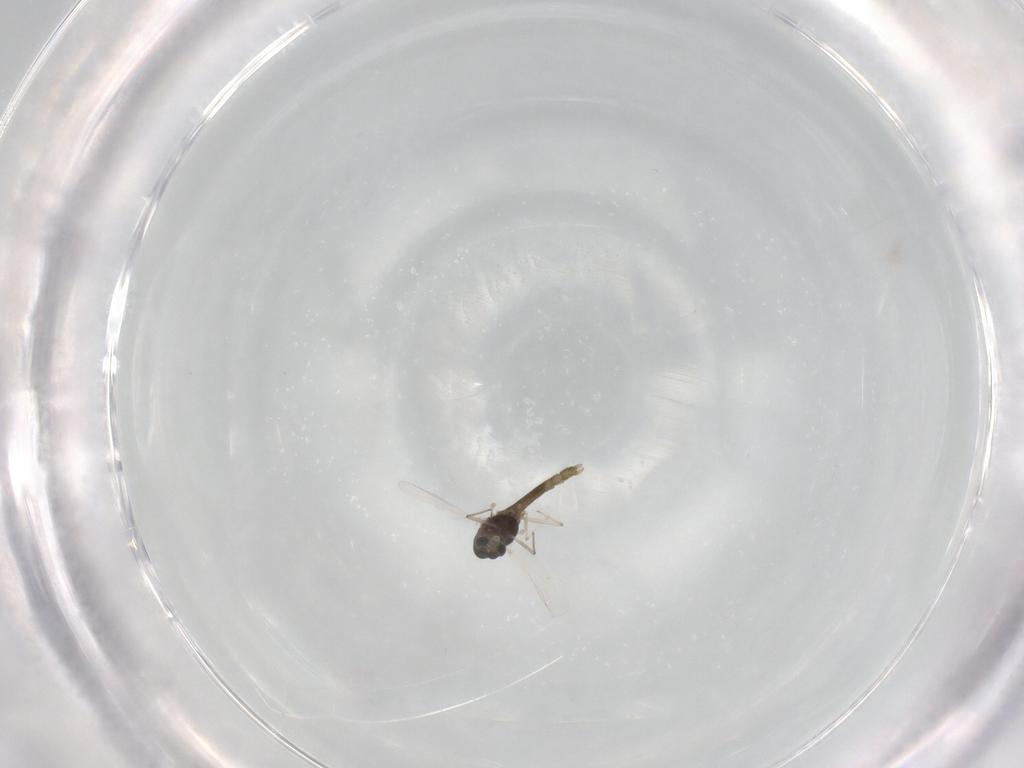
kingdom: Animalia
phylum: Arthropoda
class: Insecta
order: Diptera
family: Chironomidae
